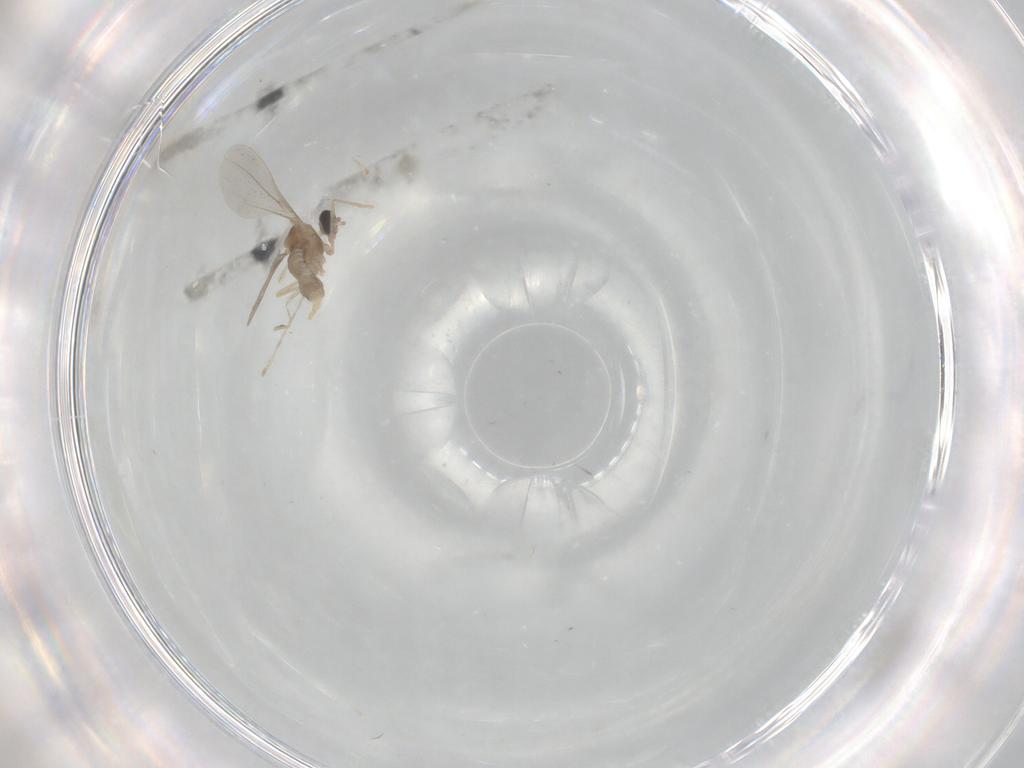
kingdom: Animalia
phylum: Arthropoda
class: Insecta
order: Diptera
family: Cecidomyiidae
